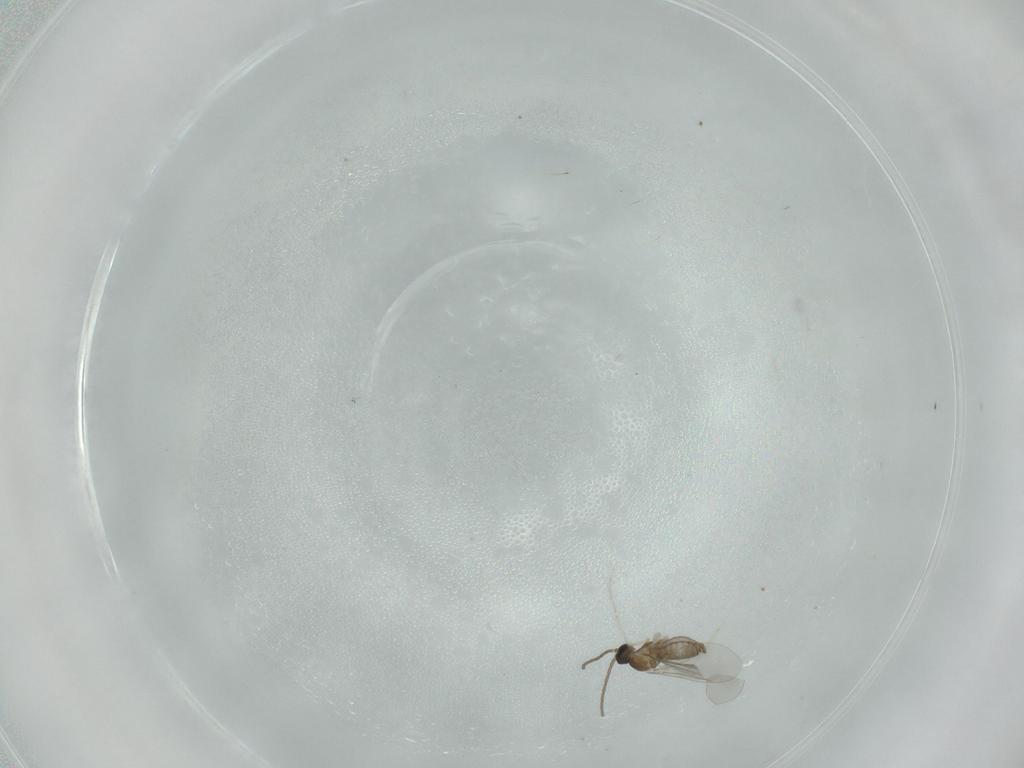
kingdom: Animalia
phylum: Arthropoda
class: Insecta
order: Diptera
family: Cecidomyiidae
